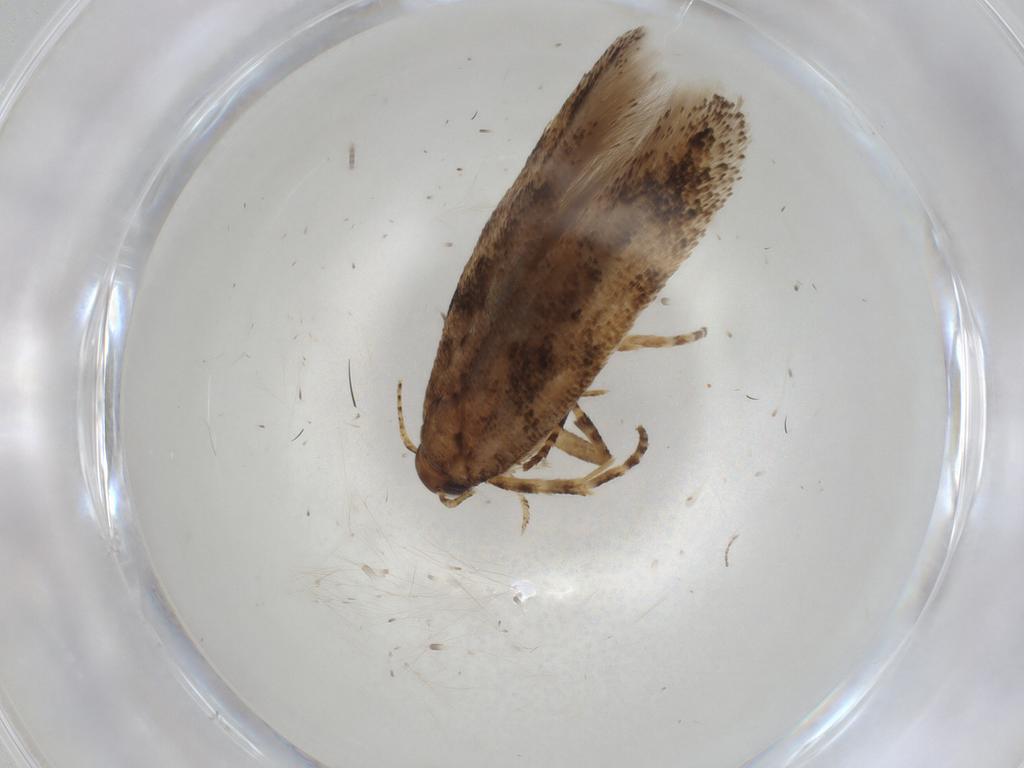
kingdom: Animalia
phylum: Arthropoda
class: Insecta
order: Lepidoptera
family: Gelechiidae
